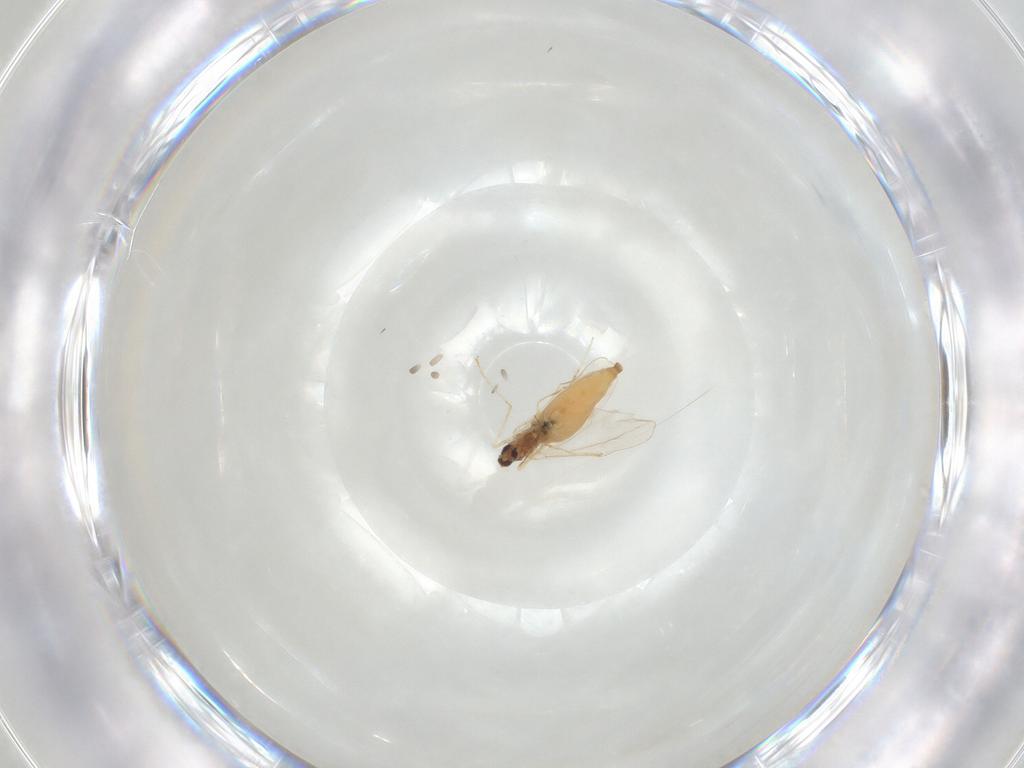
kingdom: Animalia
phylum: Arthropoda
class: Insecta
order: Diptera
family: Cecidomyiidae
